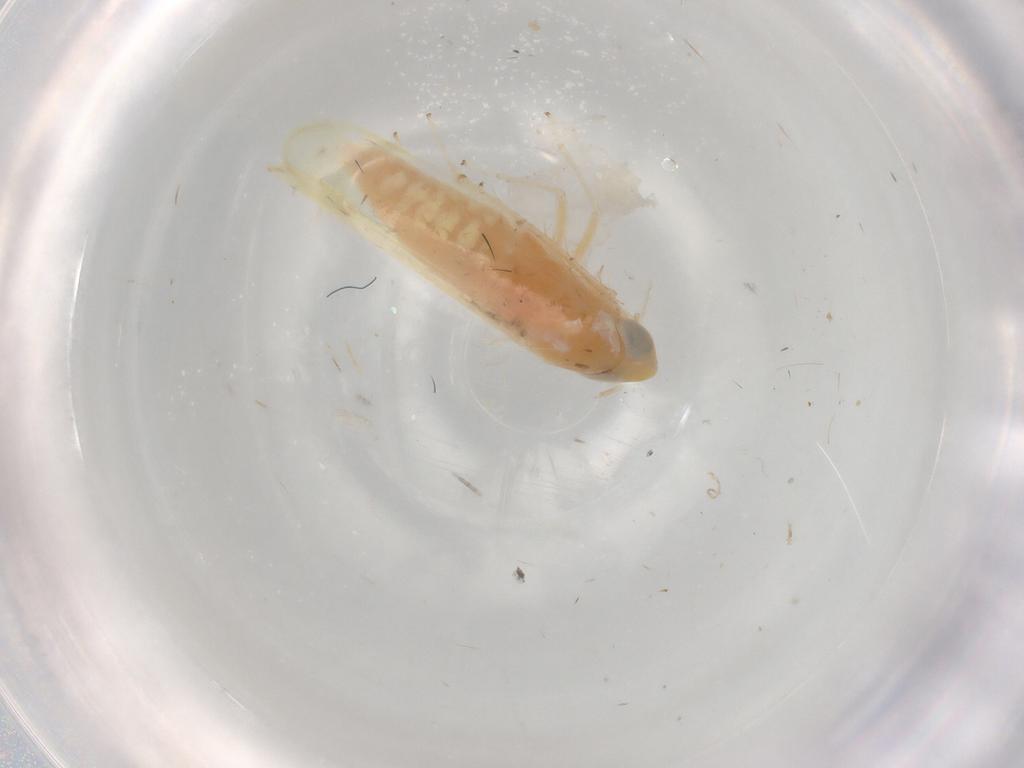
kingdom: Animalia
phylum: Arthropoda
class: Insecta
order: Hemiptera
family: Cicadellidae
